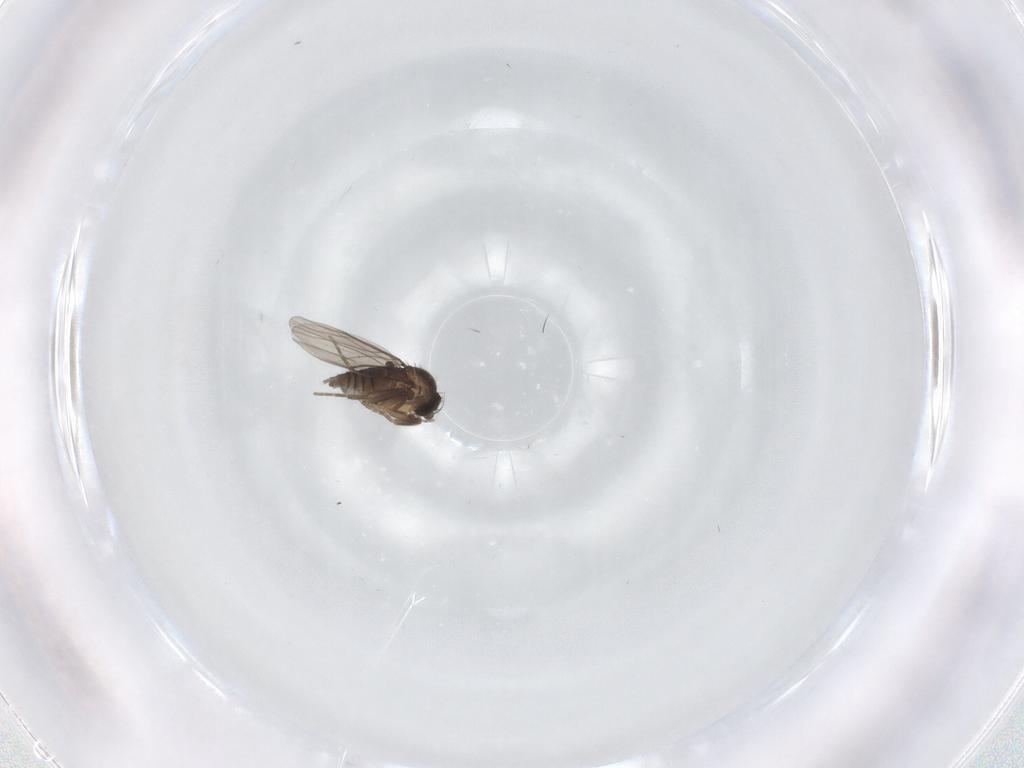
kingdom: Animalia
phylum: Arthropoda
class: Insecta
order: Diptera
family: Phoridae
